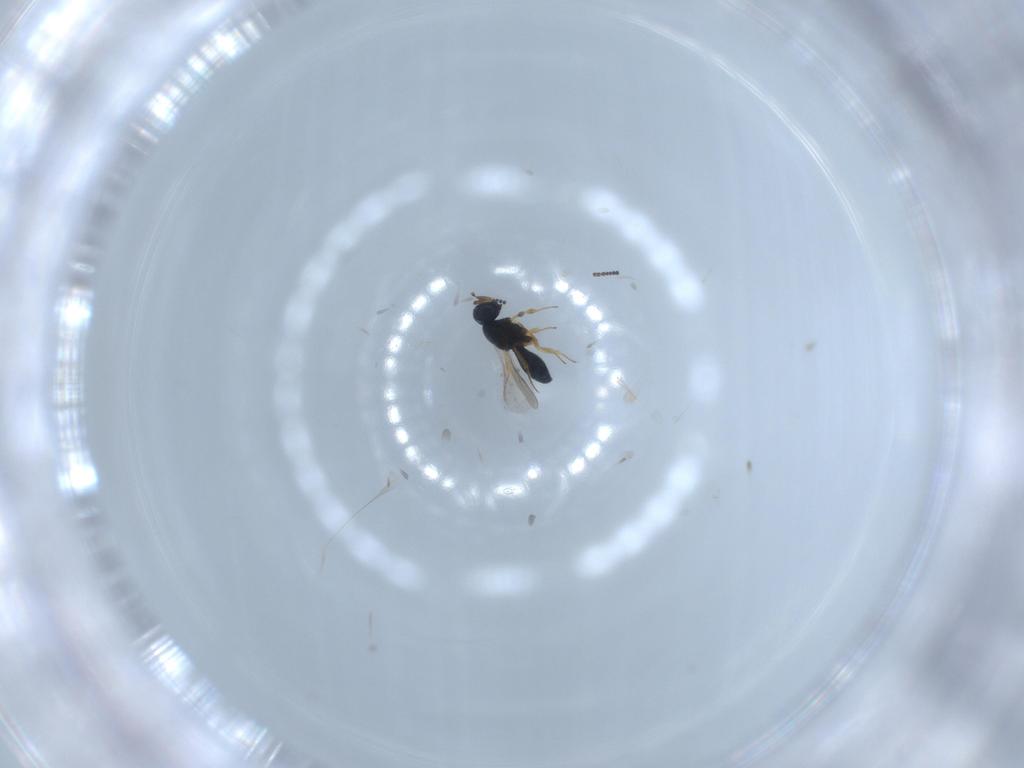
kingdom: Animalia
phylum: Arthropoda
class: Insecta
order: Hymenoptera
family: Scelionidae
